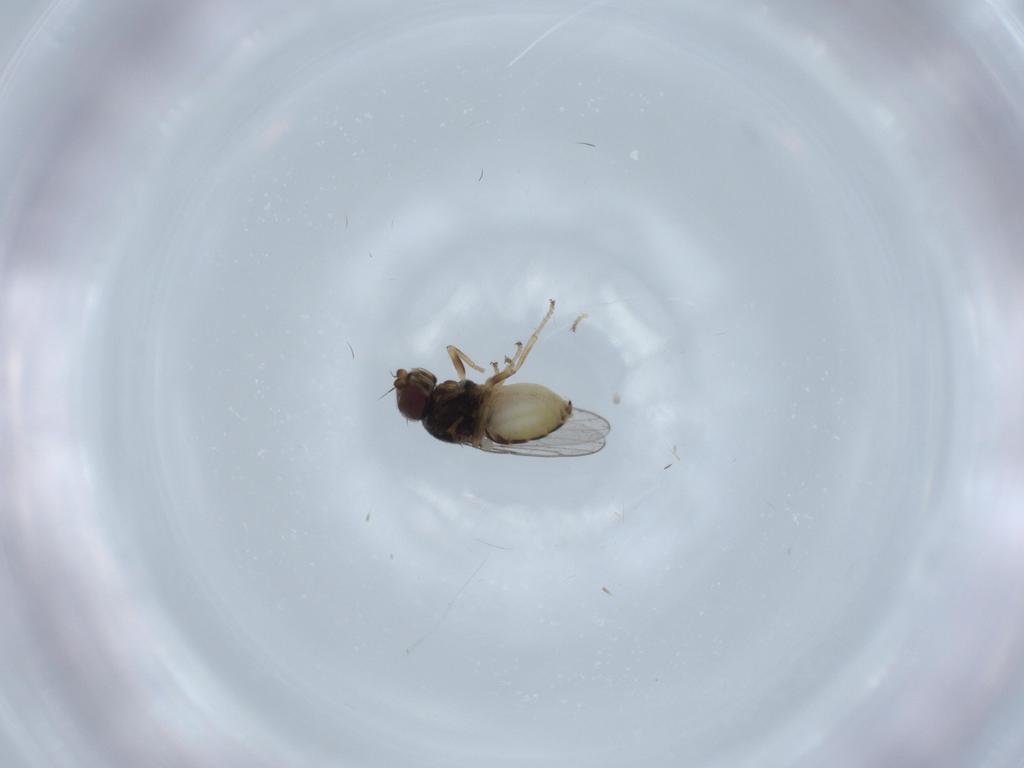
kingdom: Animalia
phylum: Arthropoda
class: Insecta
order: Diptera
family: Chloropidae
